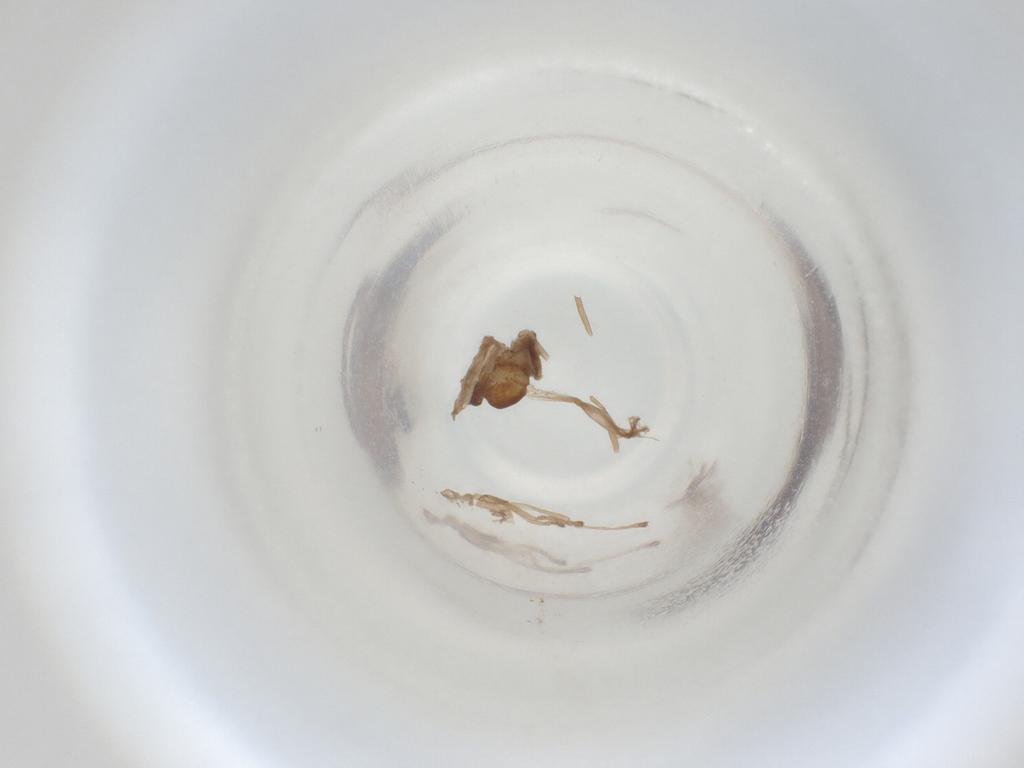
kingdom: Animalia
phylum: Arthropoda
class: Insecta
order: Diptera
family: Cecidomyiidae
